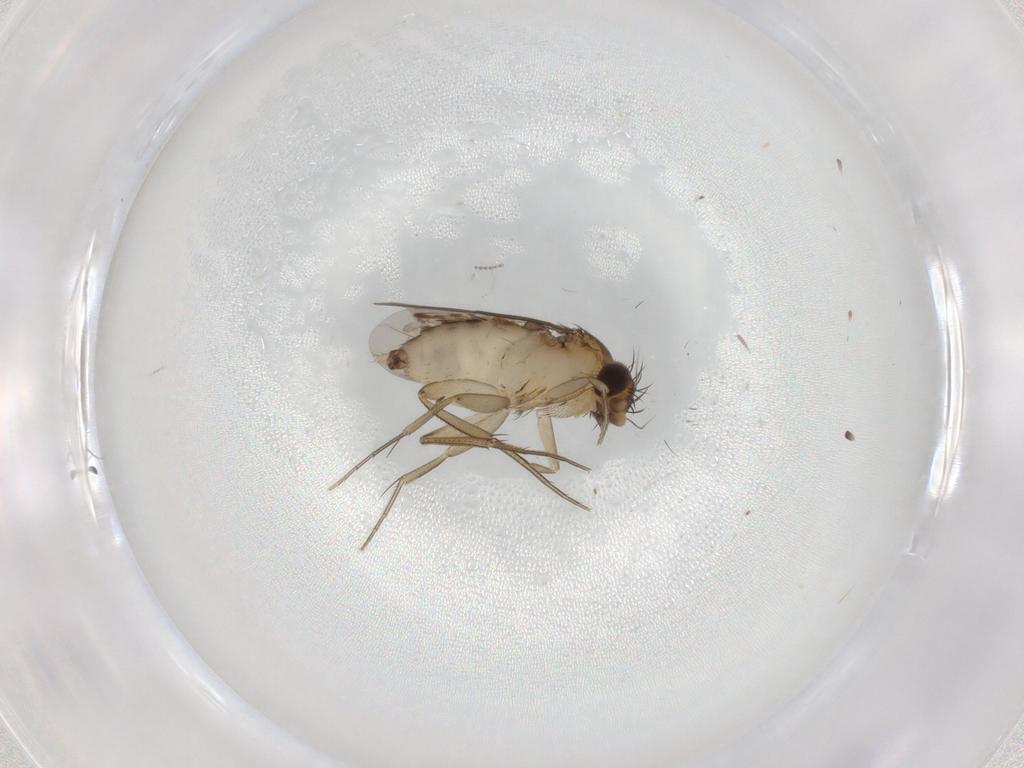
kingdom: Animalia
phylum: Arthropoda
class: Insecta
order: Diptera
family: Phoridae
